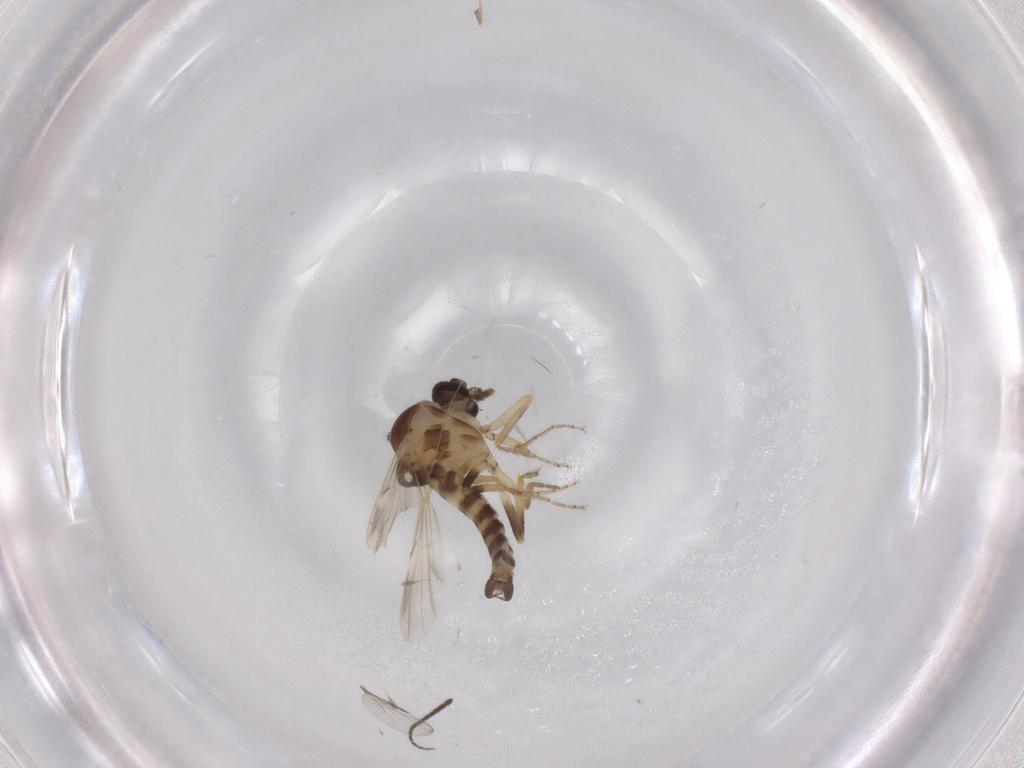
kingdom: Animalia
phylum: Arthropoda
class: Insecta
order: Diptera
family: Ceratopogonidae
